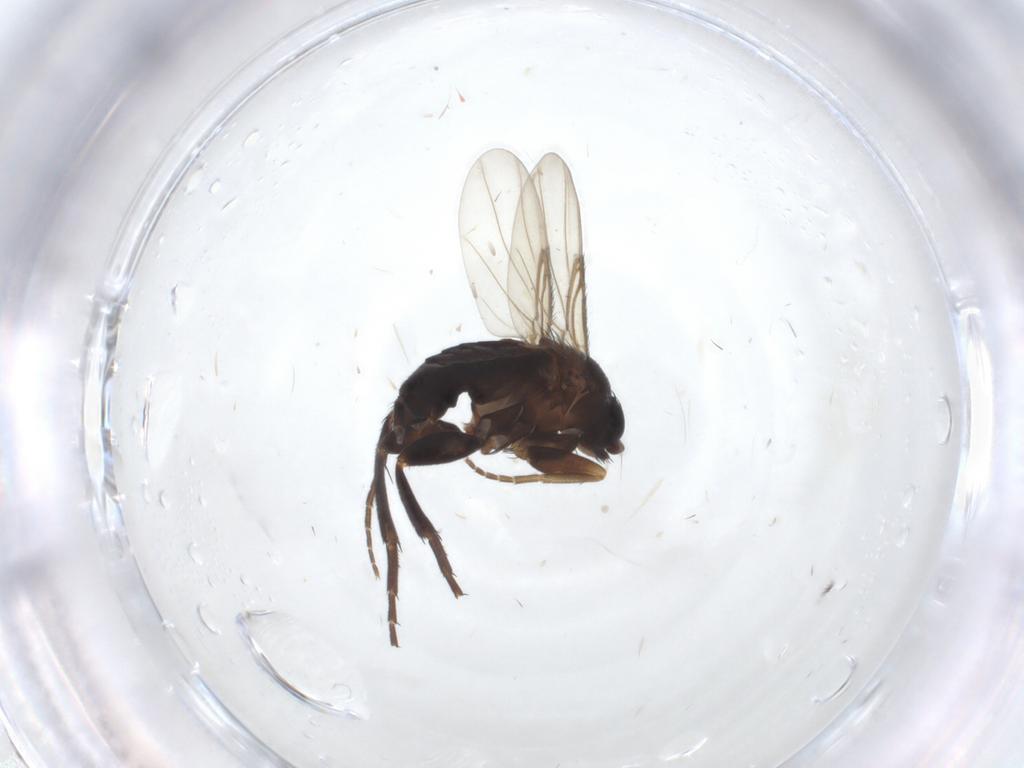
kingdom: Animalia
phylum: Arthropoda
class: Insecta
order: Diptera
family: Phoridae
